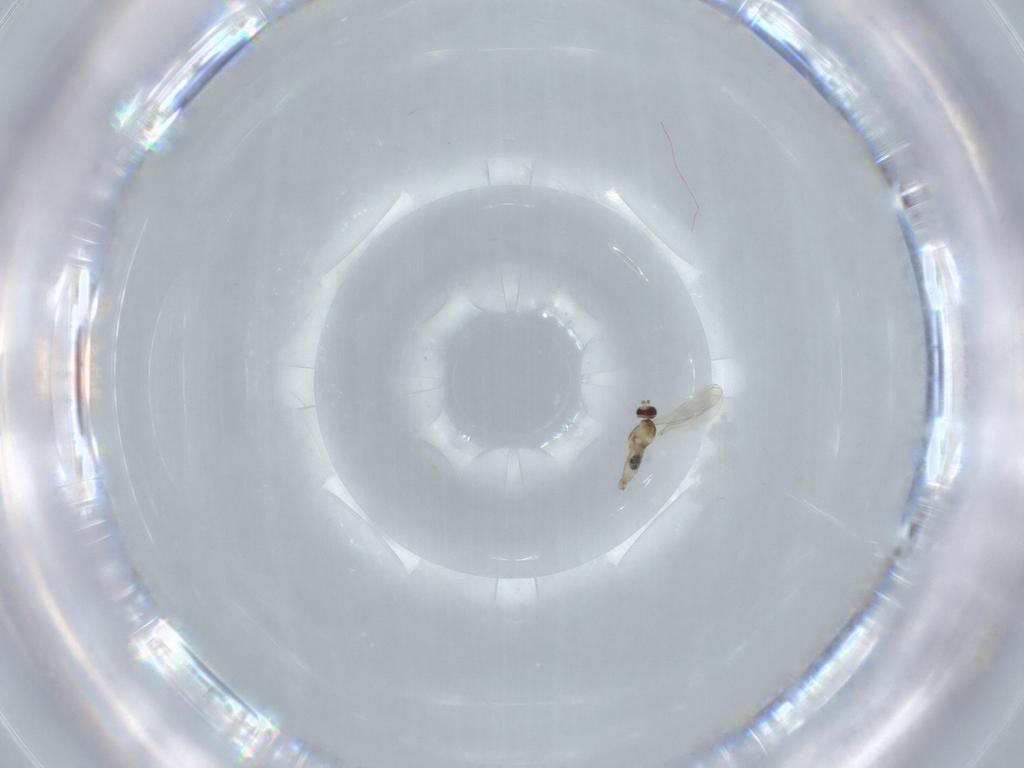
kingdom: Animalia
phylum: Arthropoda
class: Insecta
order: Diptera
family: Cecidomyiidae
